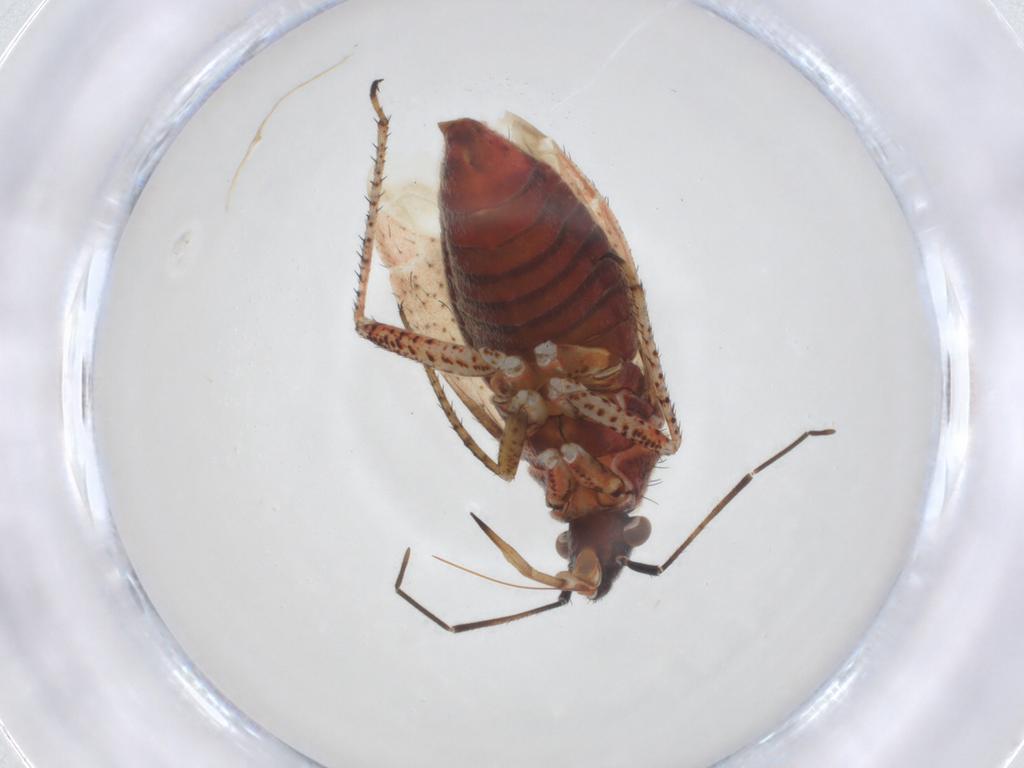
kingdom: Animalia
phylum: Arthropoda
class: Insecta
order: Hemiptera
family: Miridae
